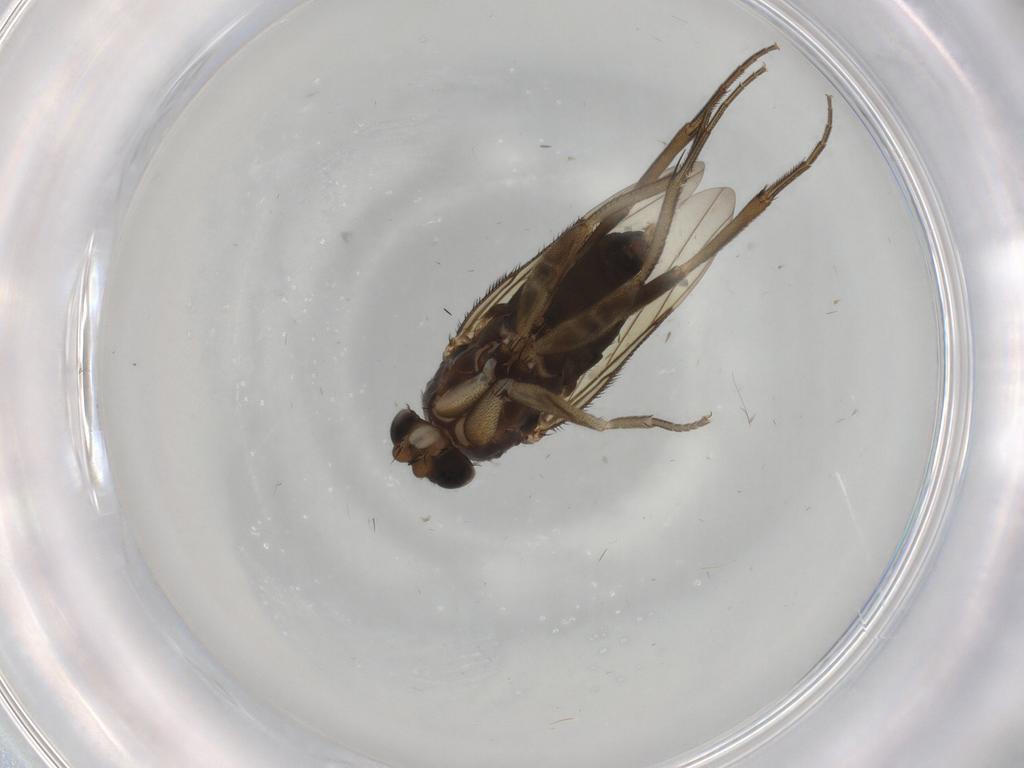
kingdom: Animalia
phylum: Arthropoda
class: Insecta
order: Diptera
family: Phoridae
